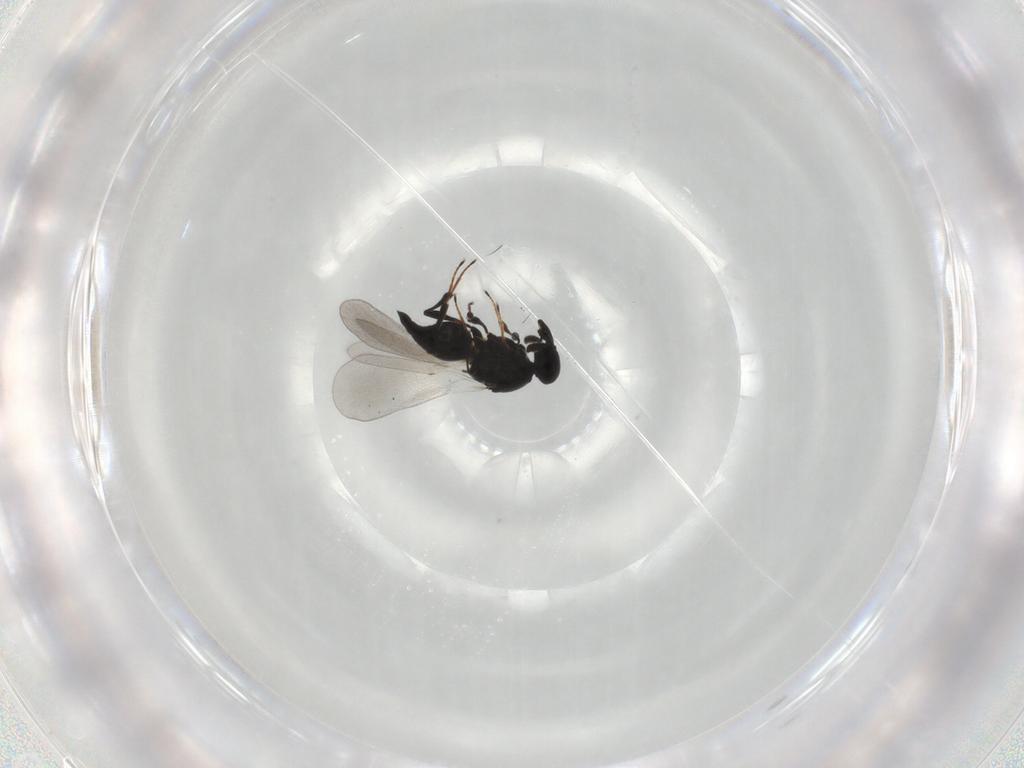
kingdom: Animalia
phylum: Arthropoda
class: Insecta
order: Hymenoptera
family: Platygastridae
